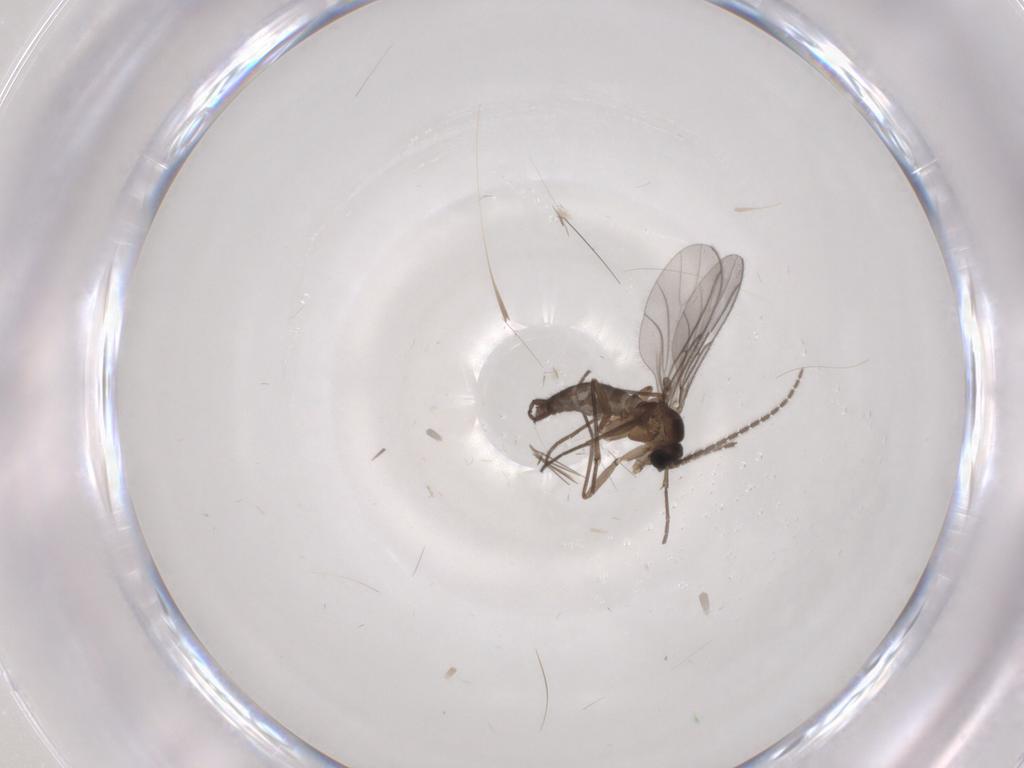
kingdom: Animalia
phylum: Arthropoda
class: Insecta
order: Diptera
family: Sciaridae
